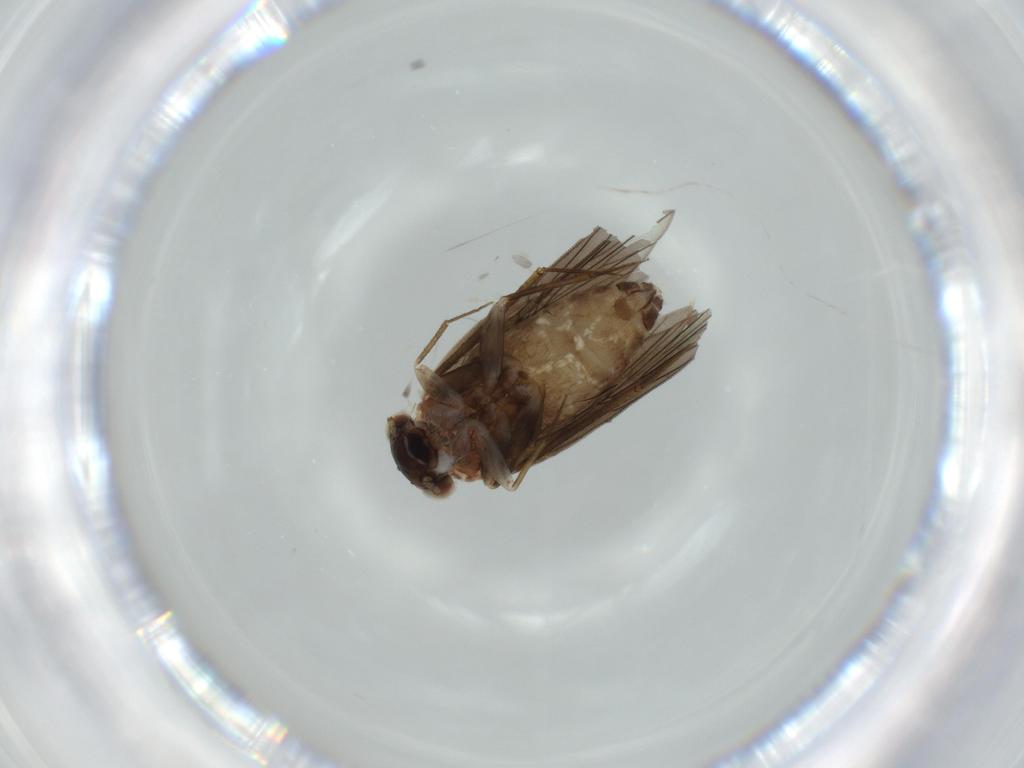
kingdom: Animalia
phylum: Arthropoda
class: Insecta
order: Psocodea
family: Lepidopsocidae
